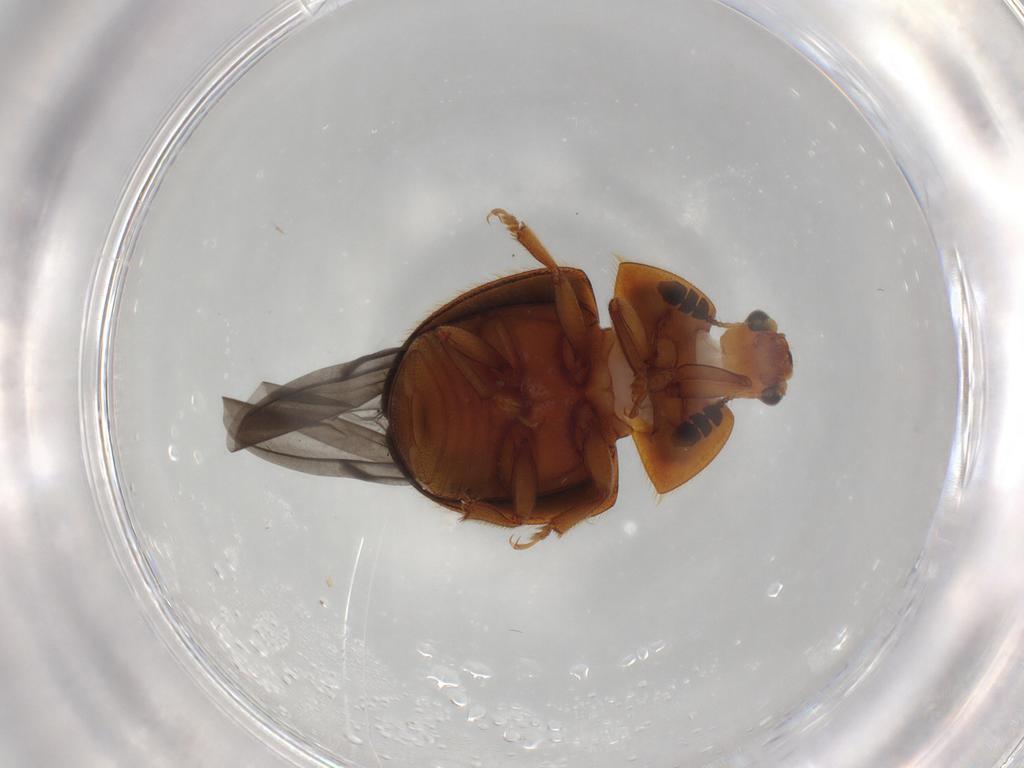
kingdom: Animalia
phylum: Arthropoda
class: Insecta
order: Coleoptera
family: Nitidulidae
